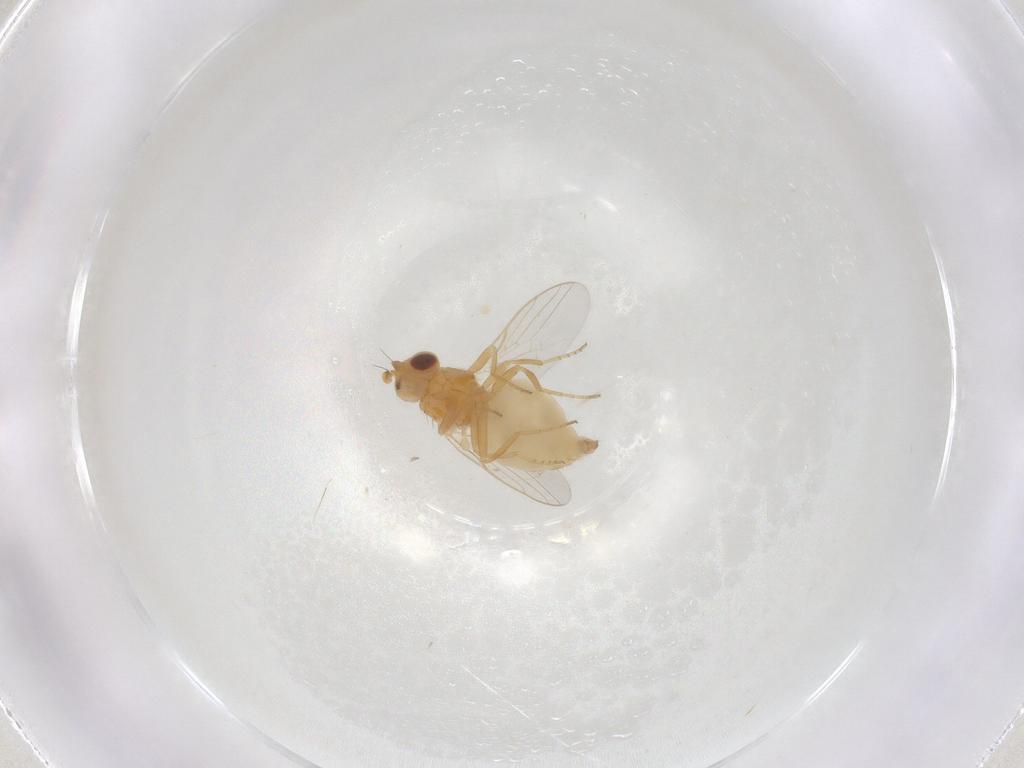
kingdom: Animalia
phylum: Arthropoda
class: Insecta
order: Diptera
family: Chloropidae
